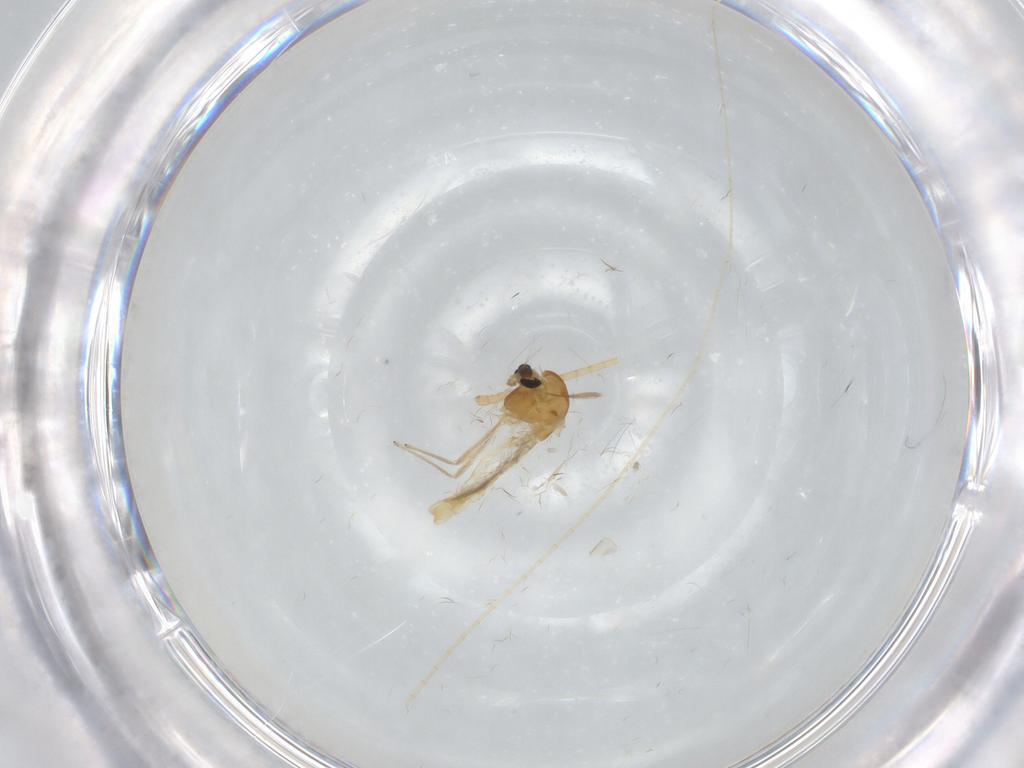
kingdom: Animalia
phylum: Arthropoda
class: Insecta
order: Diptera
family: Chironomidae
